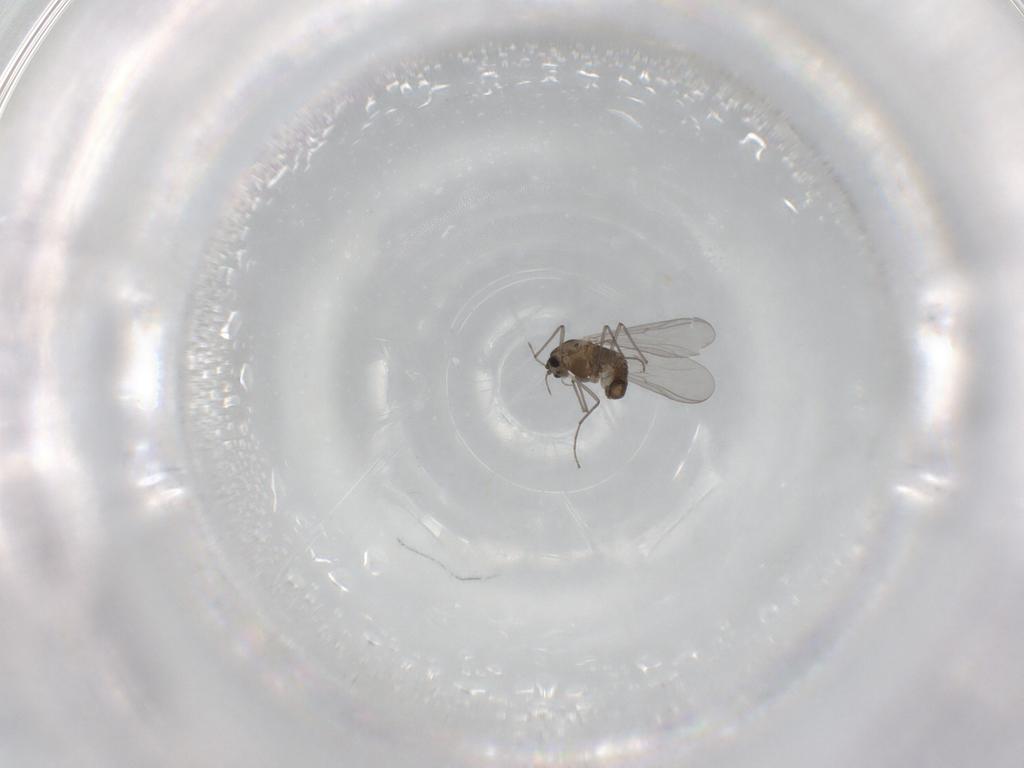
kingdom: Animalia
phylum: Arthropoda
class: Insecta
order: Diptera
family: Chironomidae
